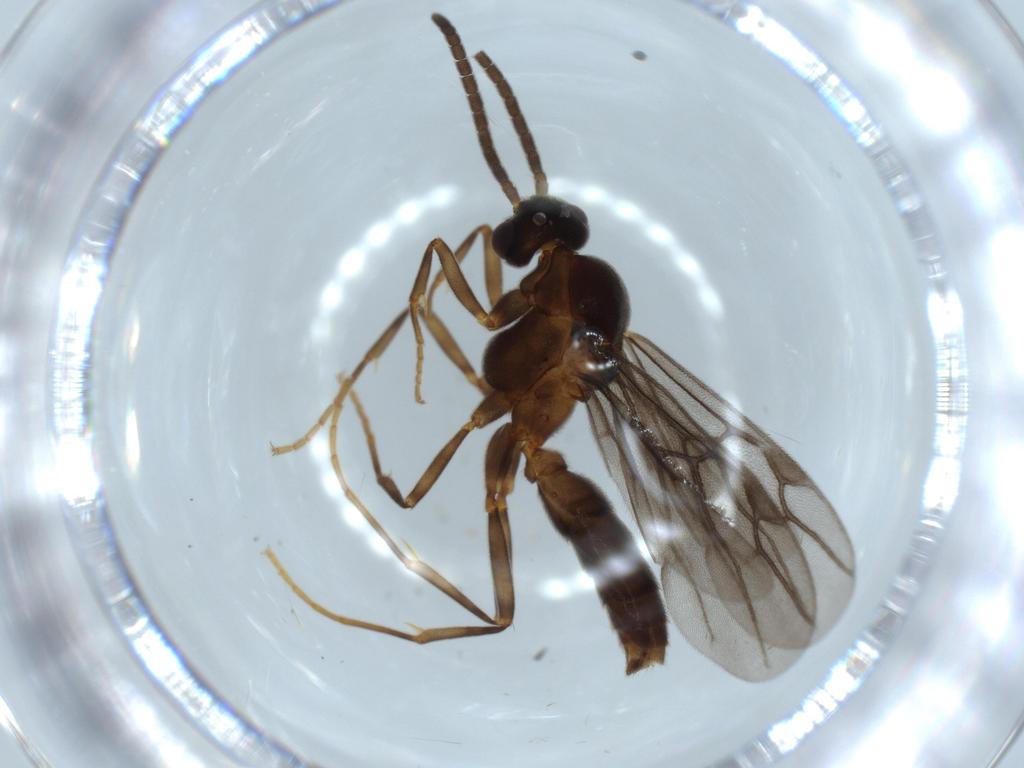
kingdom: Animalia
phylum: Arthropoda
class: Insecta
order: Hymenoptera
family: Formicidae
